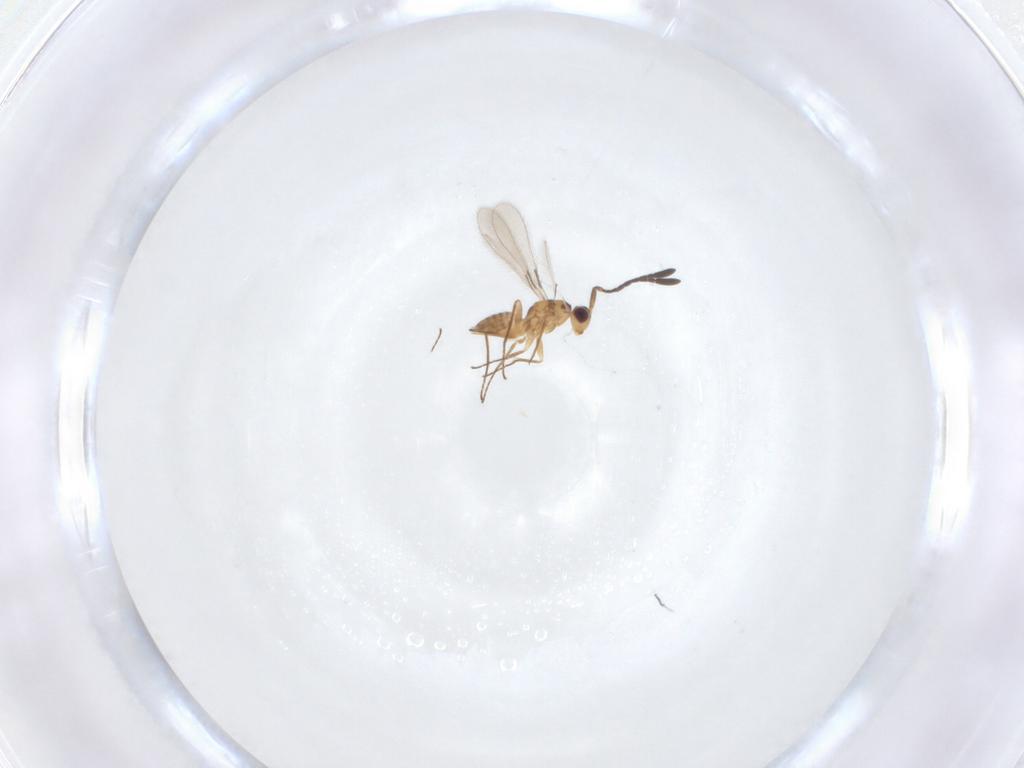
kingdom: Animalia
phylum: Arthropoda
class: Insecta
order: Hymenoptera
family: Mymaridae
